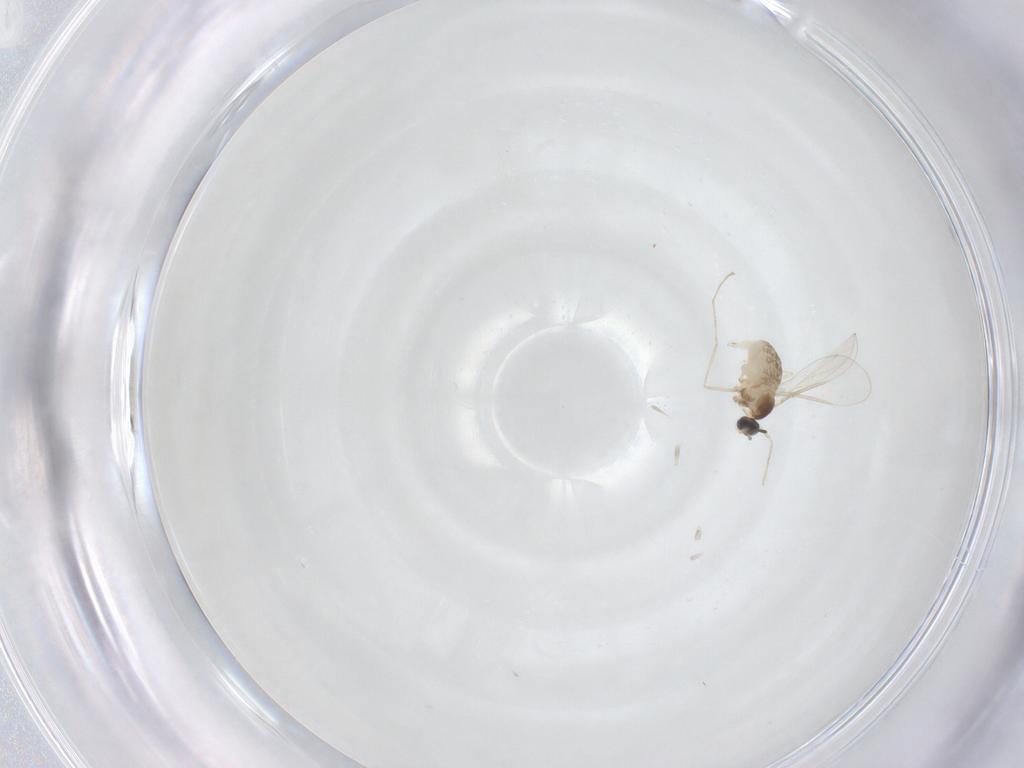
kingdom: Animalia
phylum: Arthropoda
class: Insecta
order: Diptera
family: Cecidomyiidae
